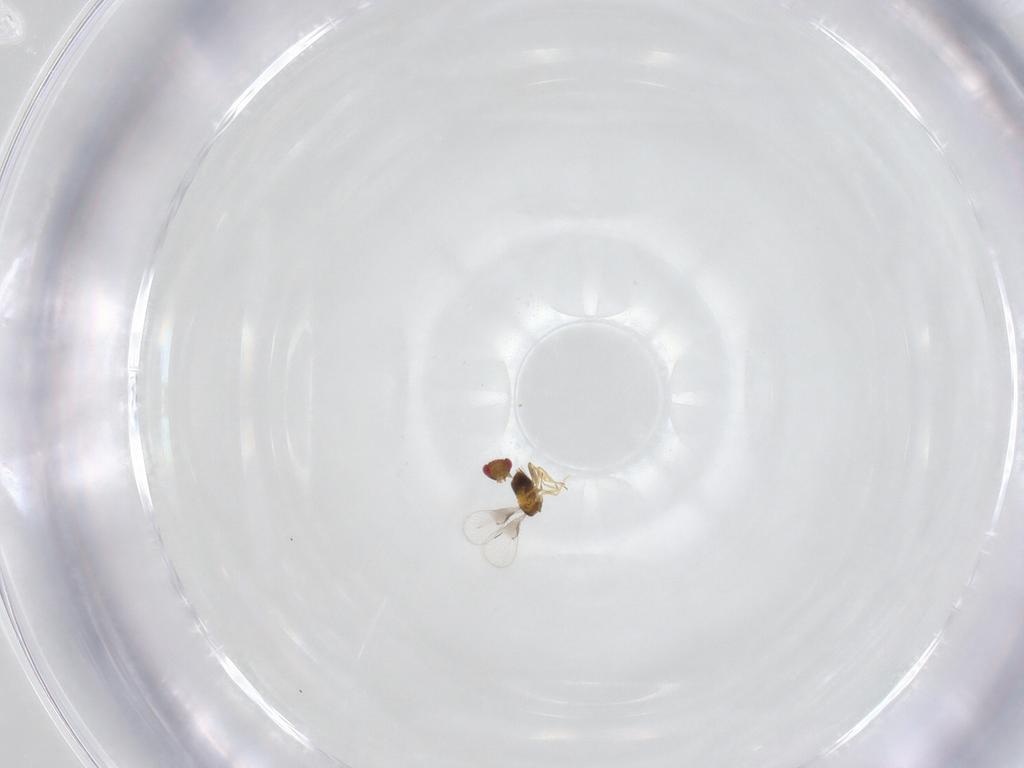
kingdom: Animalia
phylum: Arthropoda
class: Insecta
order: Hymenoptera
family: Trichogrammatidae
